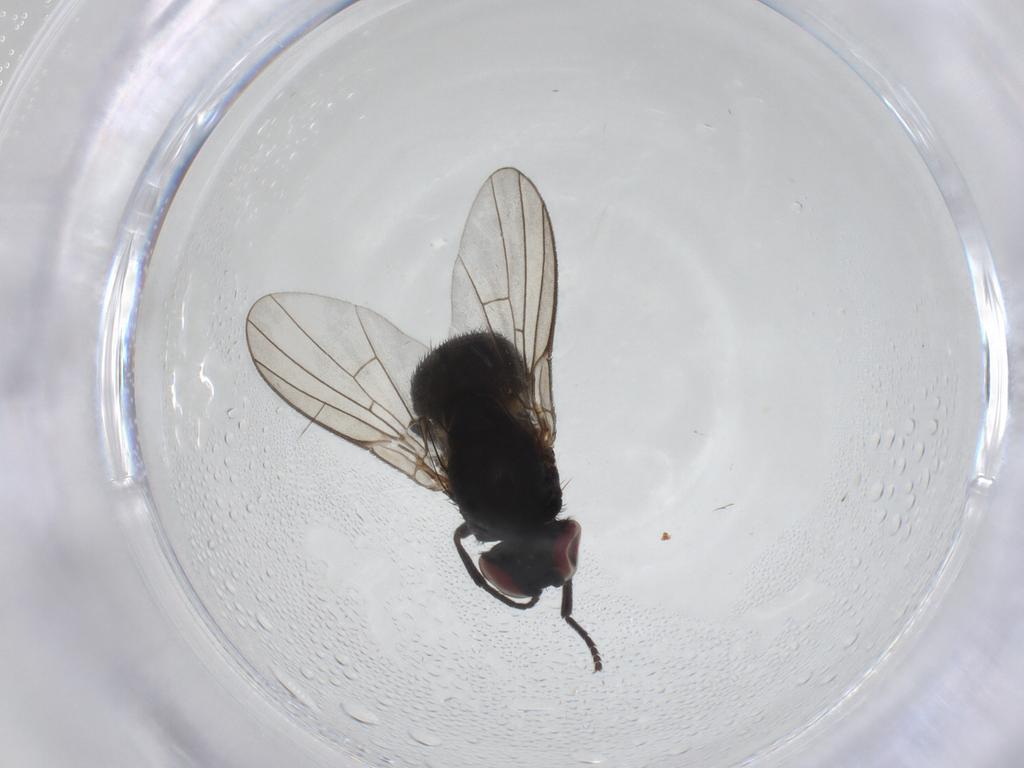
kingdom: Animalia
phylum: Arthropoda
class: Insecta
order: Diptera
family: Agromyzidae
